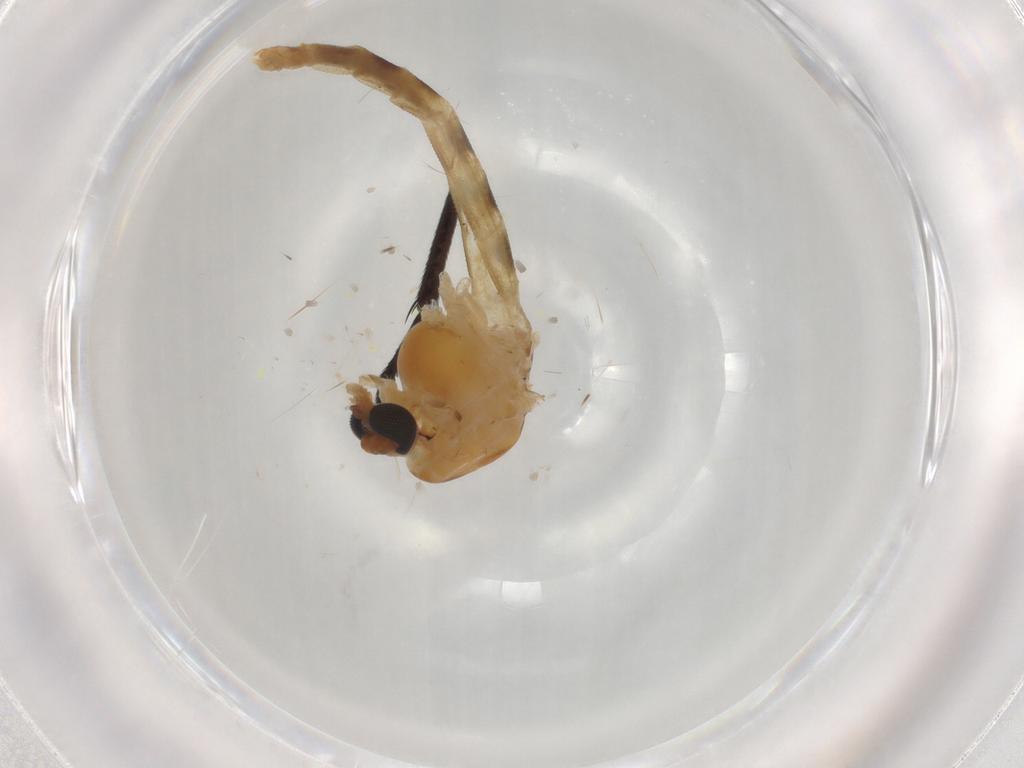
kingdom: Animalia
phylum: Arthropoda
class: Insecta
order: Diptera
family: Chironomidae
